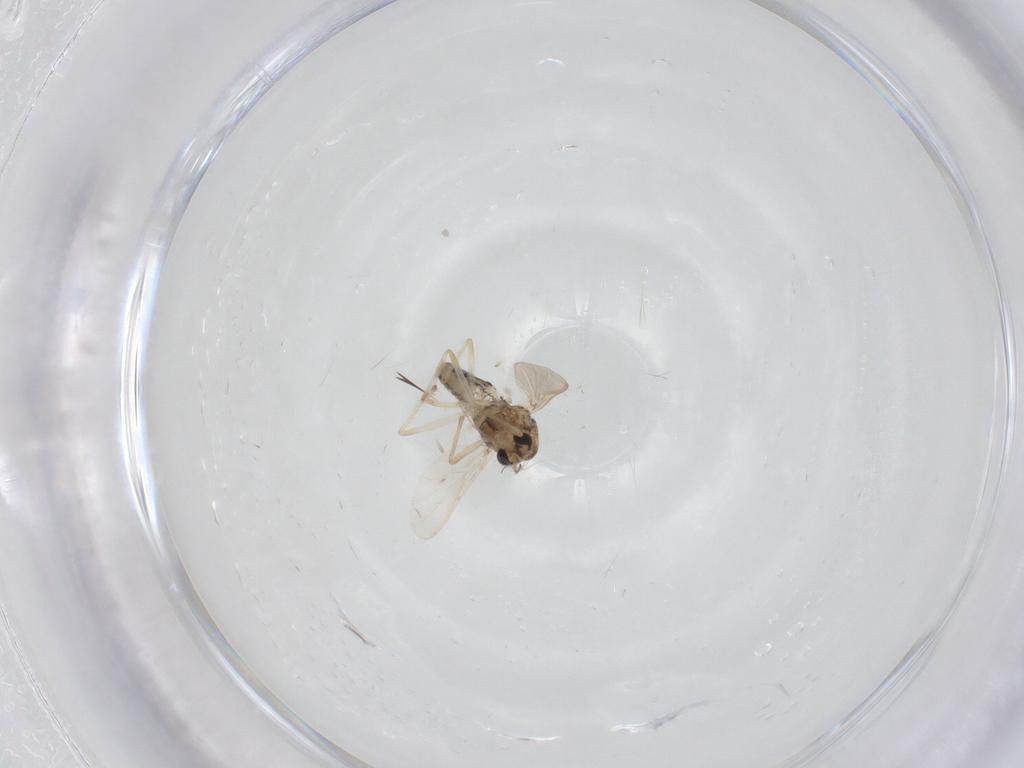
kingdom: Animalia
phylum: Arthropoda
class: Insecta
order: Diptera
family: Chironomidae
